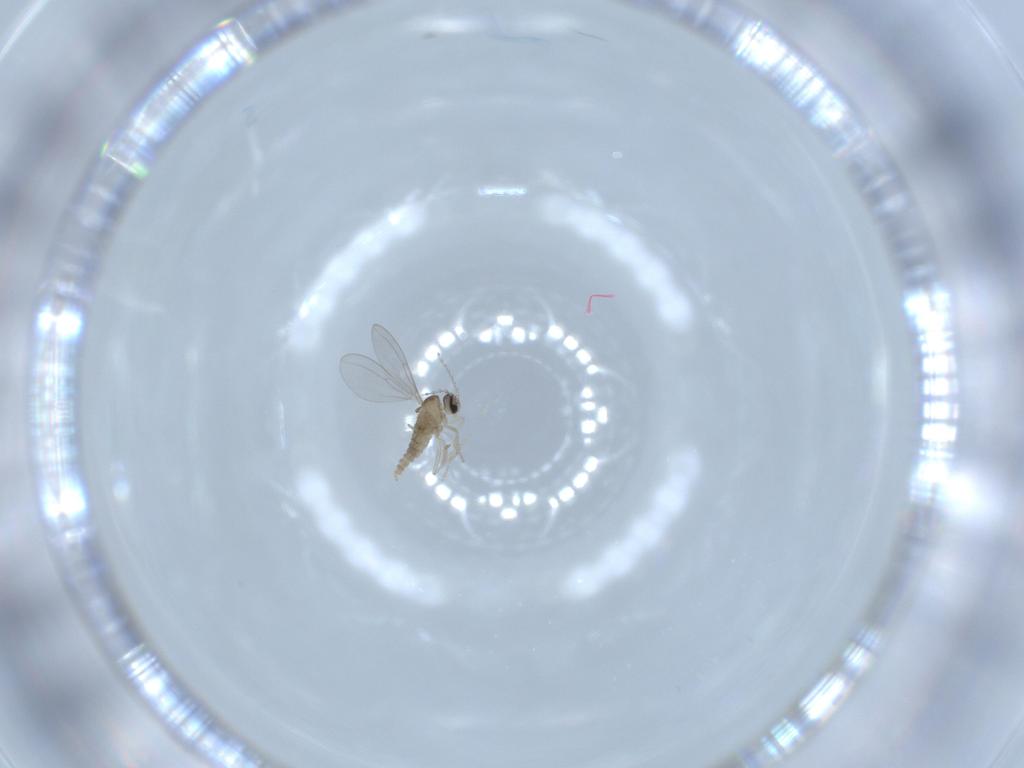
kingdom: Animalia
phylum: Arthropoda
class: Insecta
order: Diptera
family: Cecidomyiidae
